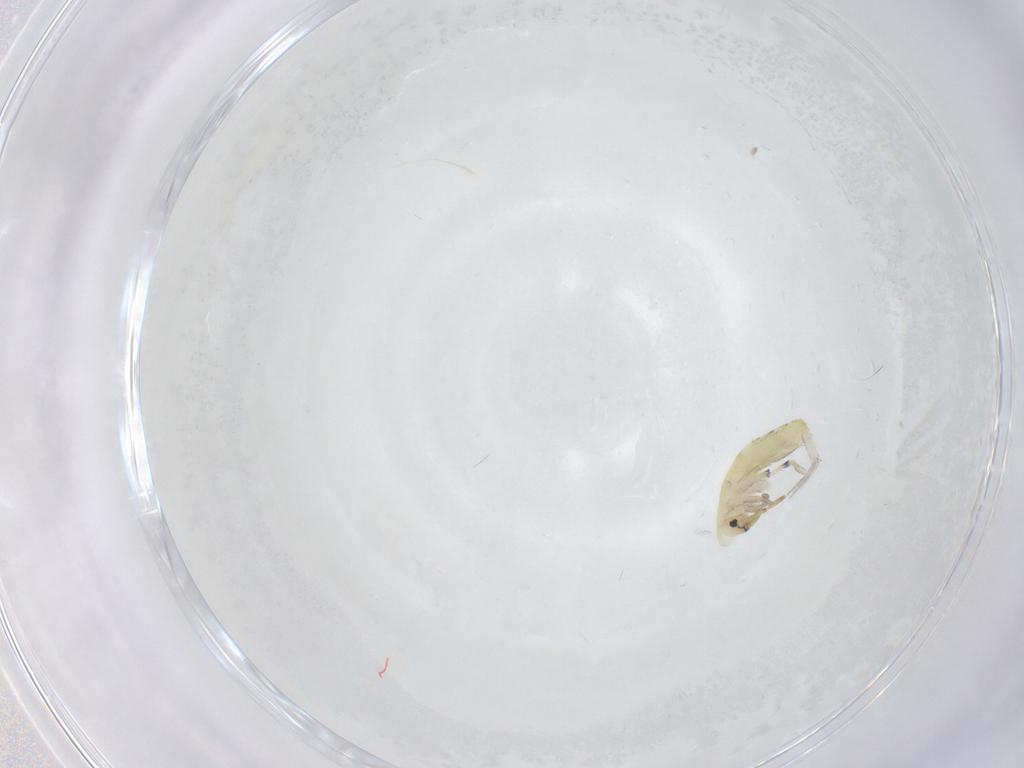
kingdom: Animalia
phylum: Arthropoda
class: Collembola
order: Entomobryomorpha
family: Entomobryidae
